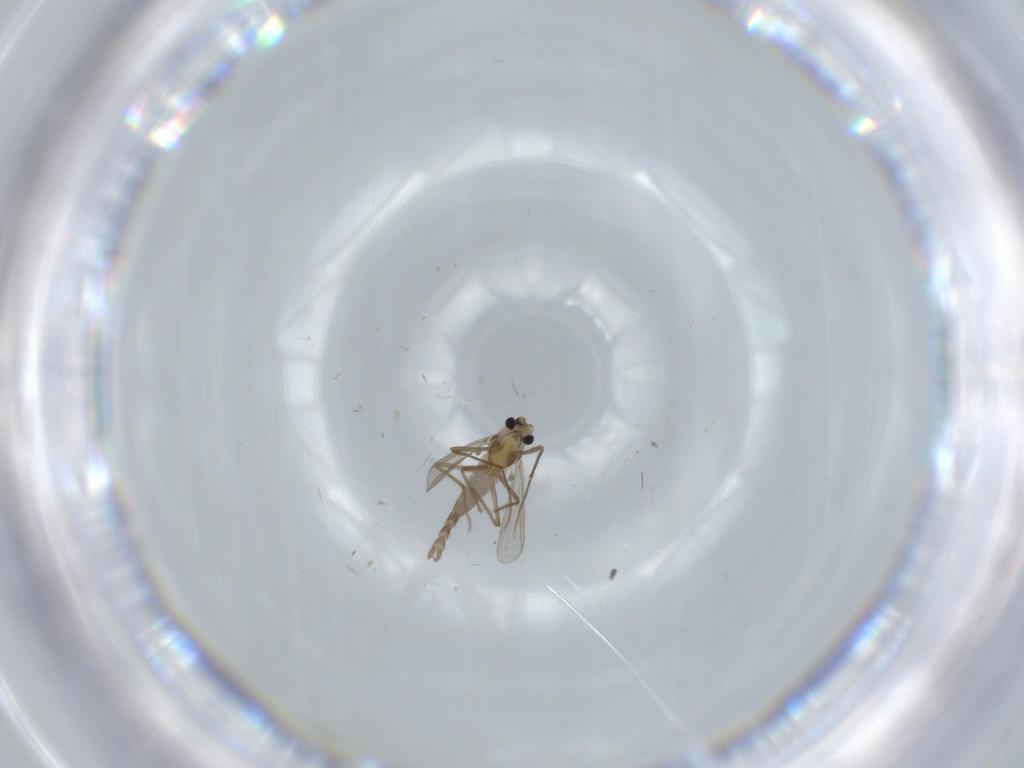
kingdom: Animalia
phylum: Arthropoda
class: Insecta
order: Diptera
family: Chironomidae
